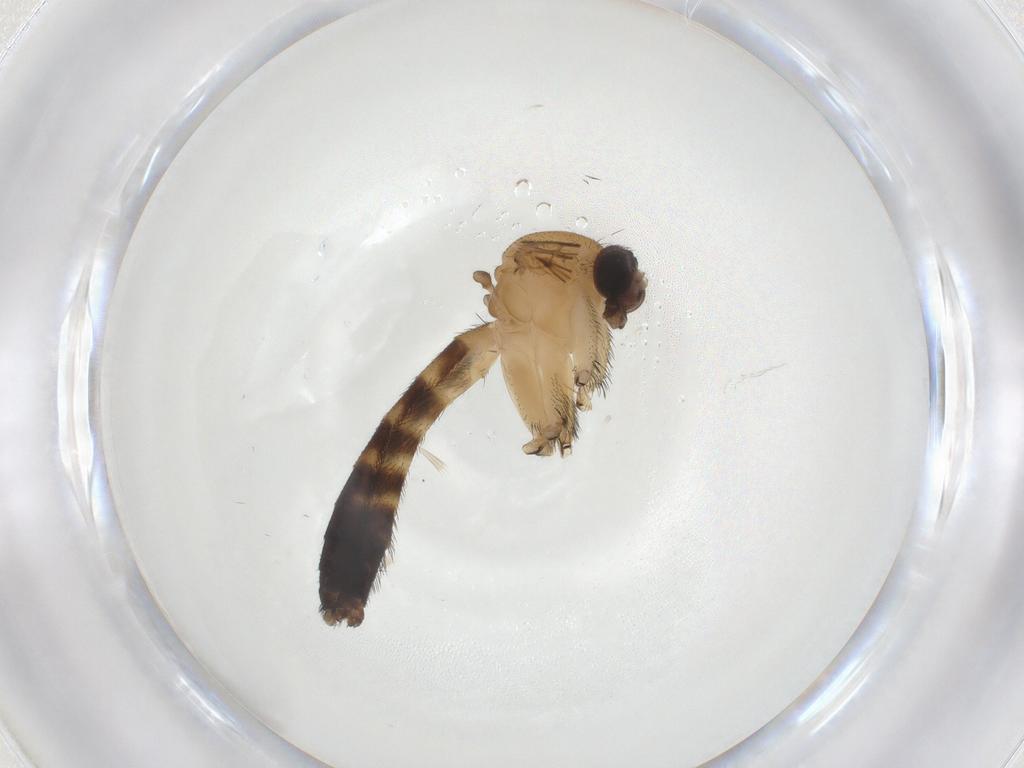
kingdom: Animalia
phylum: Arthropoda
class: Insecta
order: Diptera
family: Keroplatidae
